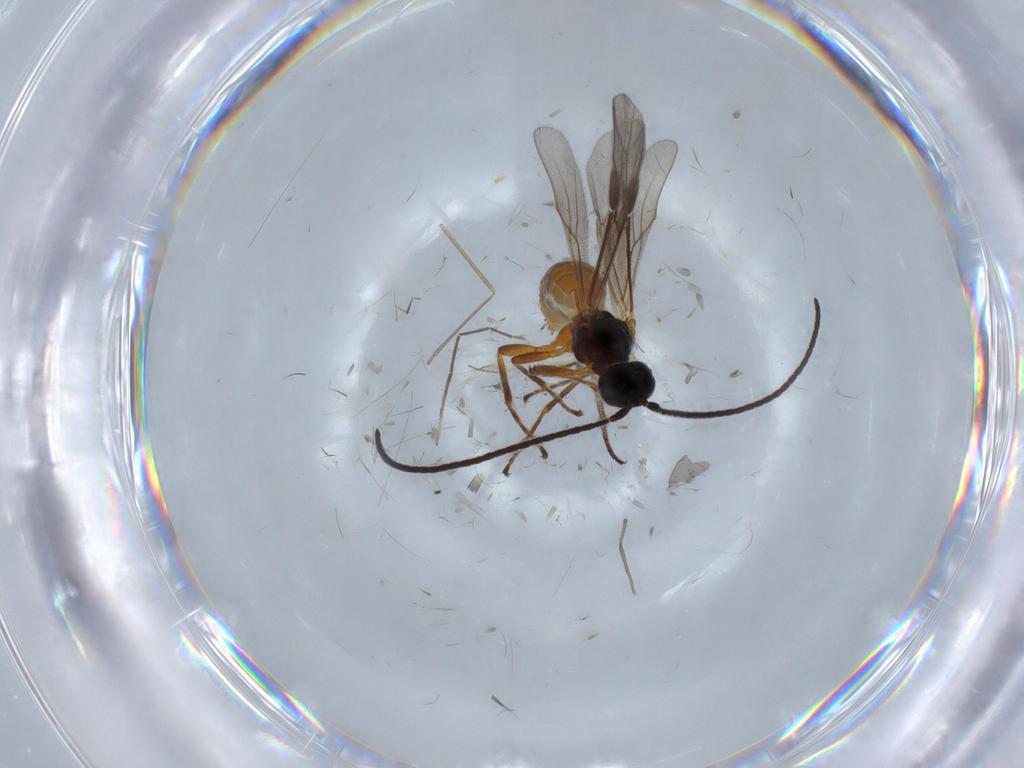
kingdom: Animalia
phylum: Arthropoda
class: Insecta
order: Hymenoptera
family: Braconidae
